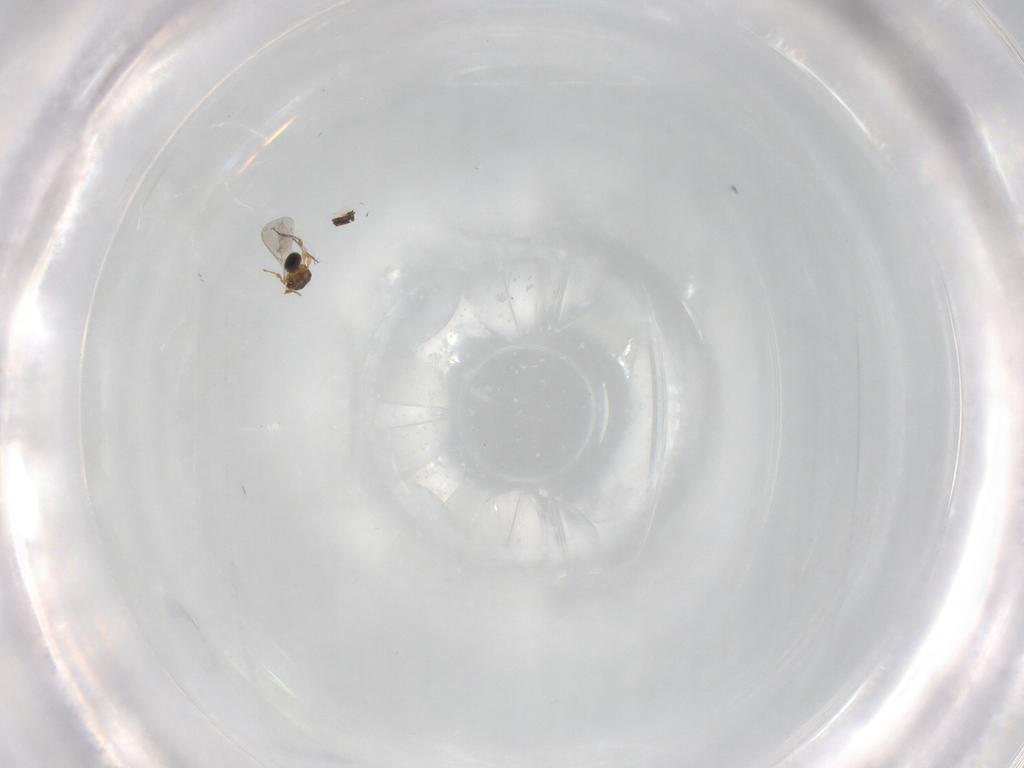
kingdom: Animalia
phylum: Arthropoda
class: Insecta
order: Hymenoptera
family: Platygastridae
